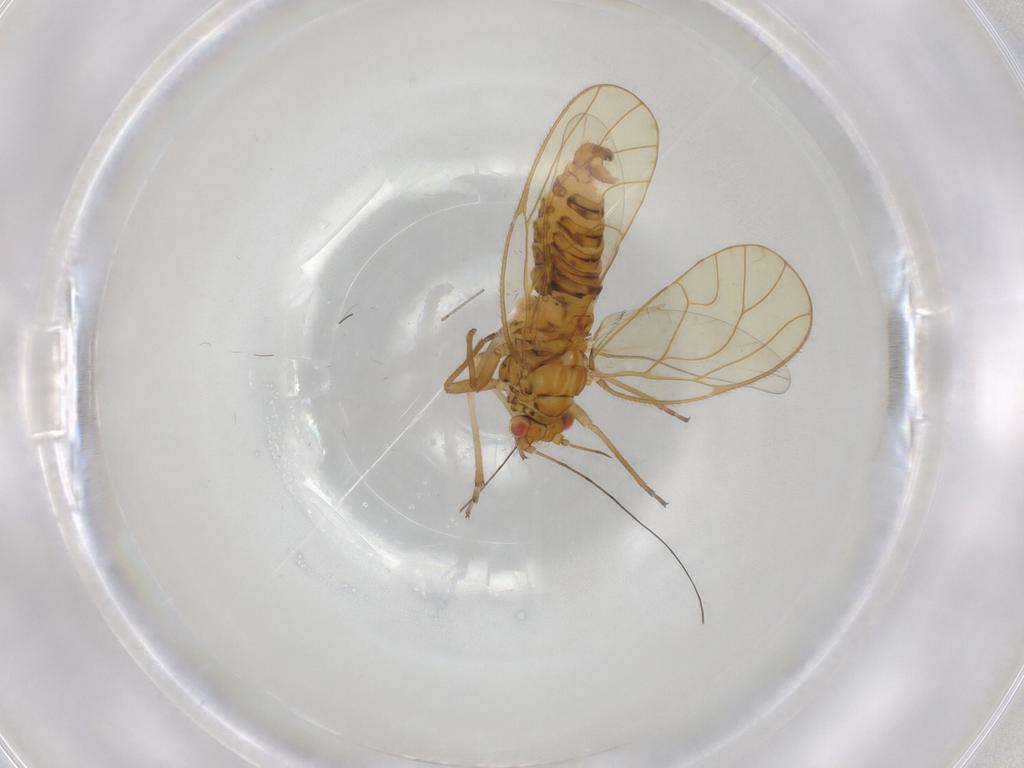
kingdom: Animalia
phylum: Arthropoda
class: Insecta
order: Hemiptera
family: Psyllidae
